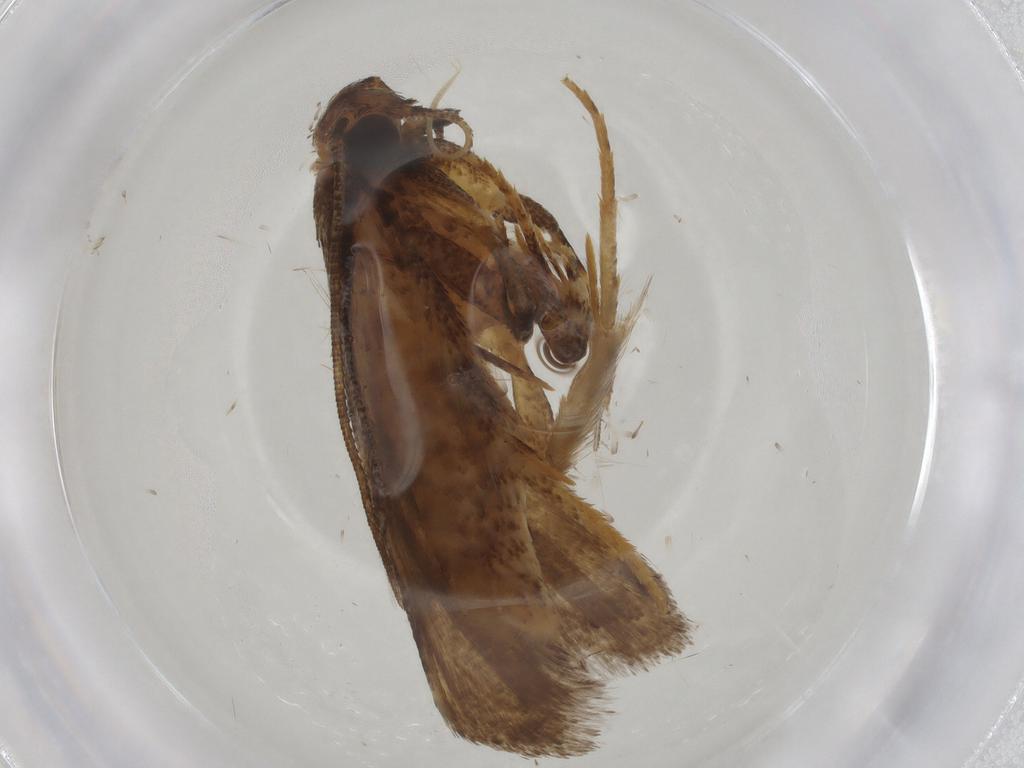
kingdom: Animalia
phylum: Arthropoda
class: Insecta
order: Lepidoptera
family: Gelechiidae
